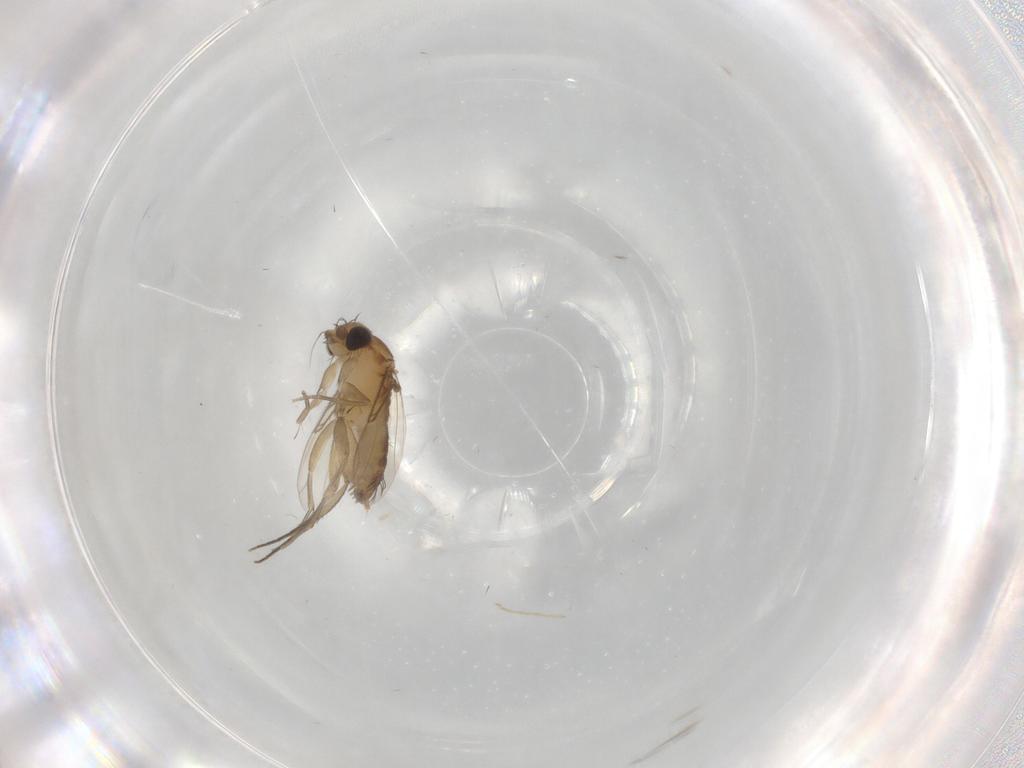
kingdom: Animalia
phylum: Arthropoda
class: Insecta
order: Diptera
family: Phoridae
